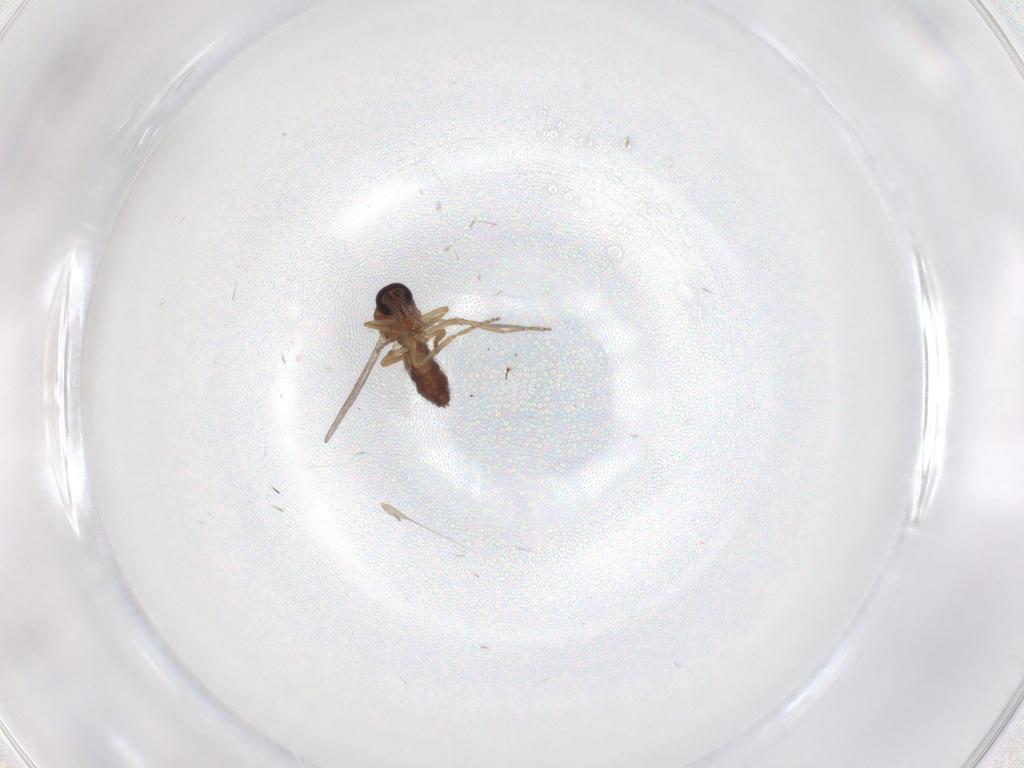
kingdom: Animalia
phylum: Arthropoda
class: Insecta
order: Diptera
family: Ceratopogonidae
